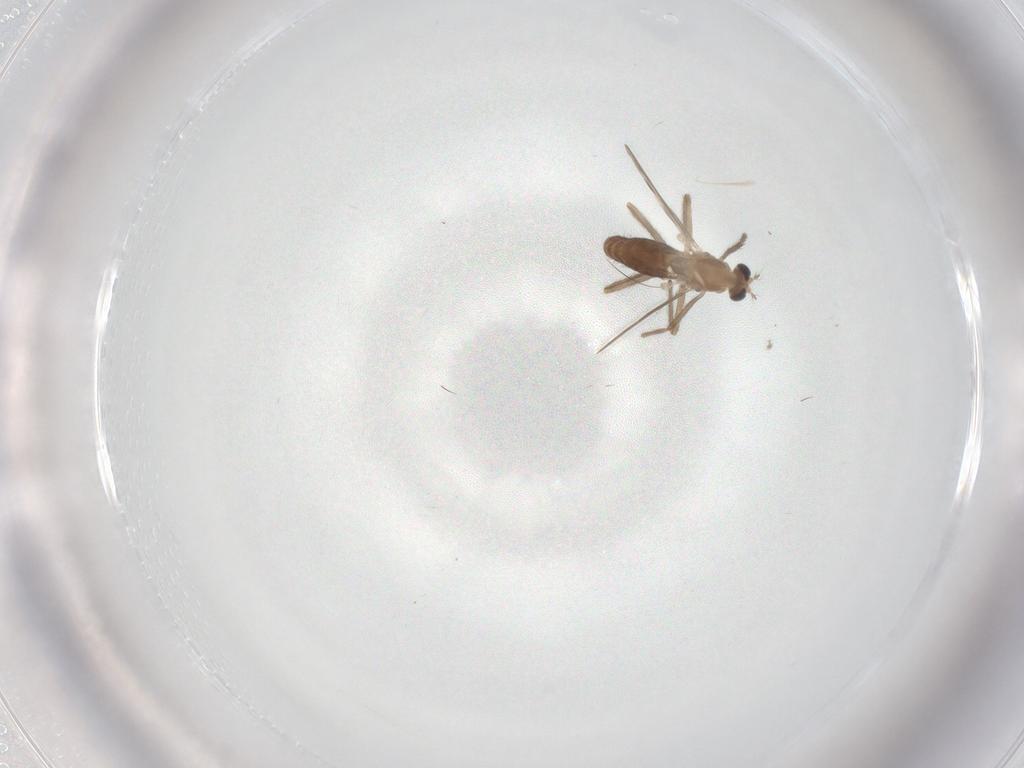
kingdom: Animalia
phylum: Arthropoda
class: Insecta
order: Diptera
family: Chironomidae
